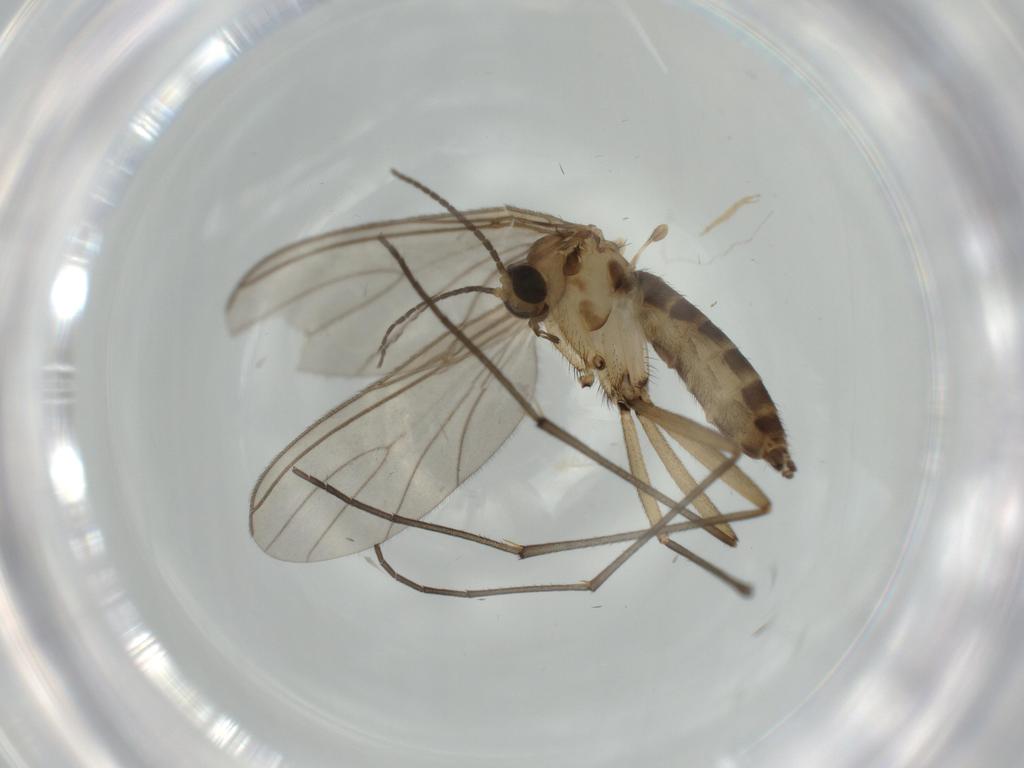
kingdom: Animalia
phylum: Arthropoda
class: Insecta
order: Diptera
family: Sciaridae
